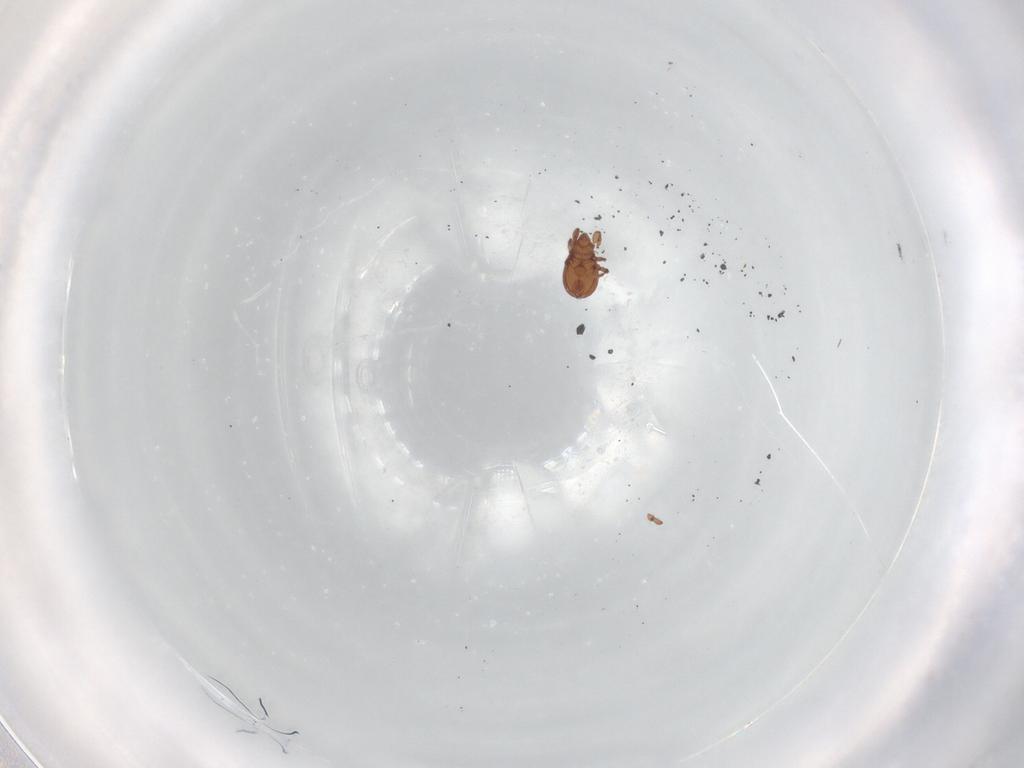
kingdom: Animalia
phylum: Arthropoda
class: Arachnida
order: Sarcoptiformes
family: Eremaeidae
